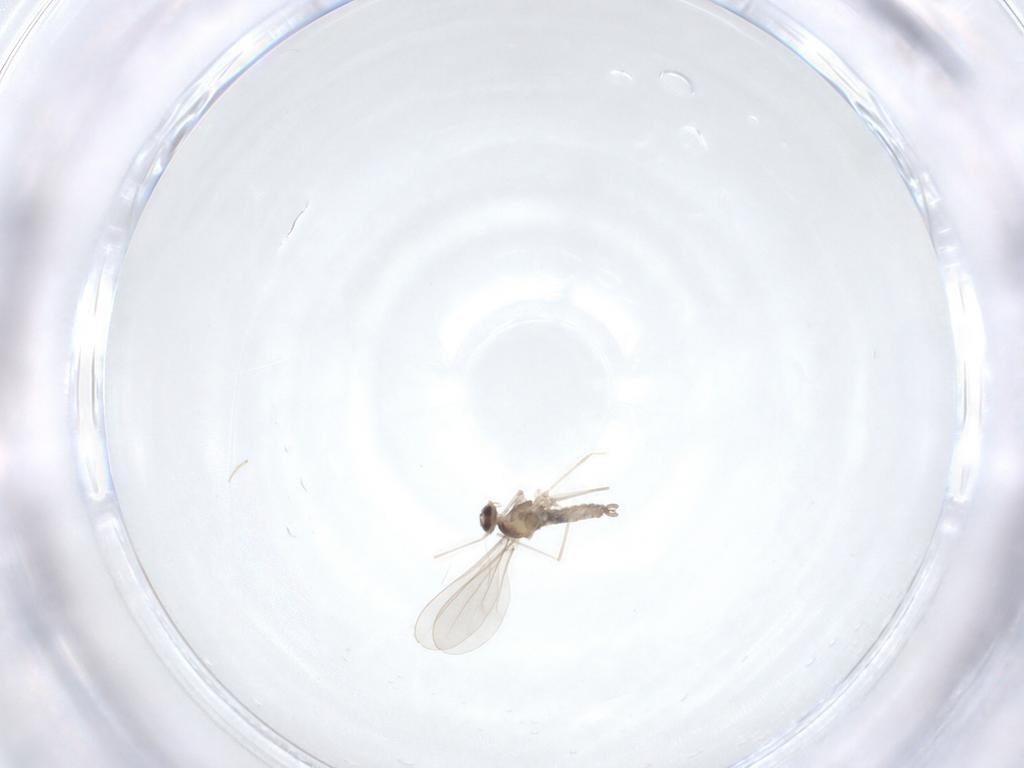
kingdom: Animalia
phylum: Arthropoda
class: Insecta
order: Diptera
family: Cecidomyiidae
